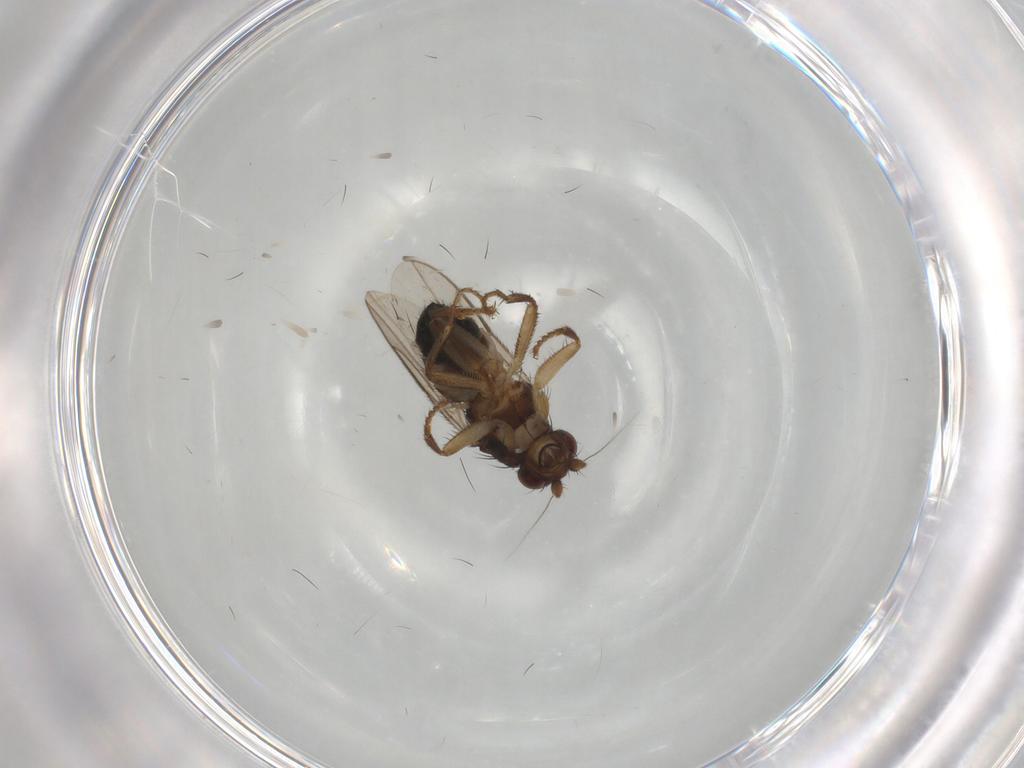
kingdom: Animalia
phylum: Arthropoda
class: Insecta
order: Diptera
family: Sphaeroceridae
